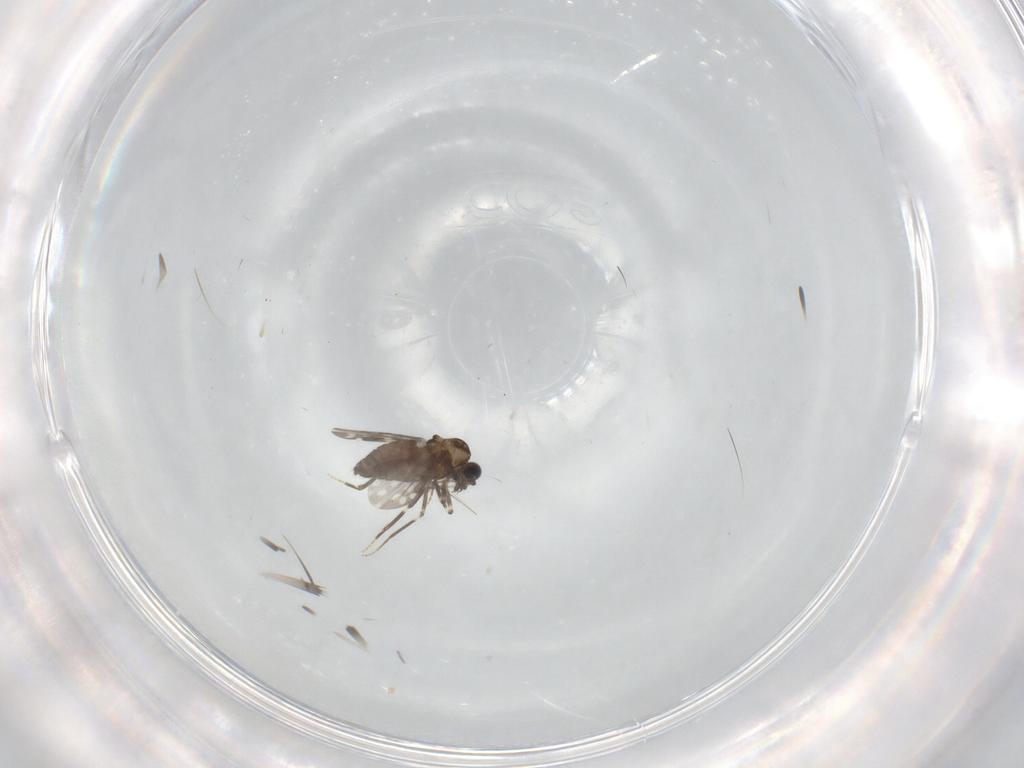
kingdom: Animalia
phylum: Arthropoda
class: Insecta
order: Diptera
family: Ceratopogonidae
